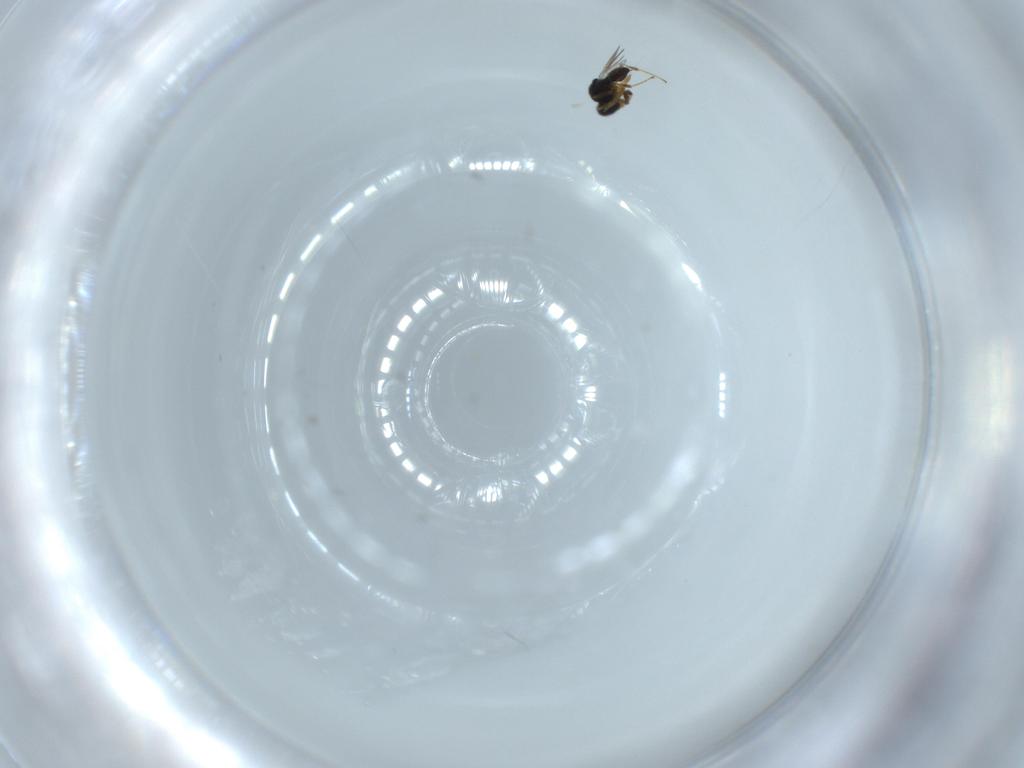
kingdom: Animalia
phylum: Arthropoda
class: Insecta
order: Hymenoptera
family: Platygastridae
